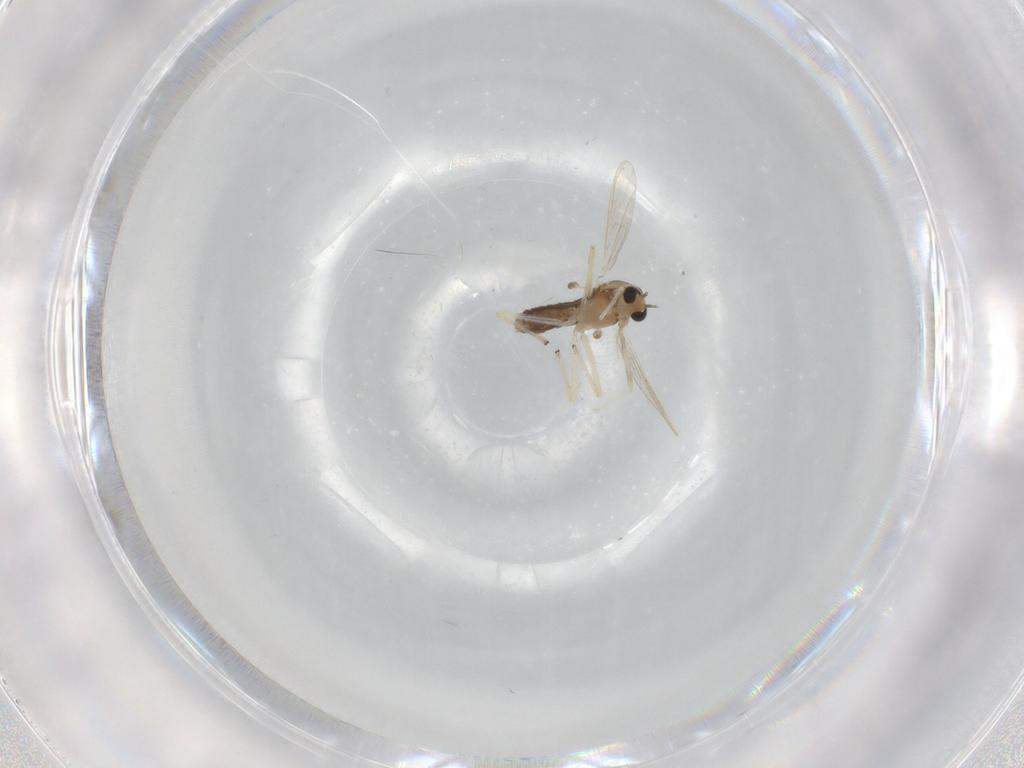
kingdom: Animalia
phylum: Arthropoda
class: Insecta
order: Diptera
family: Chironomidae
